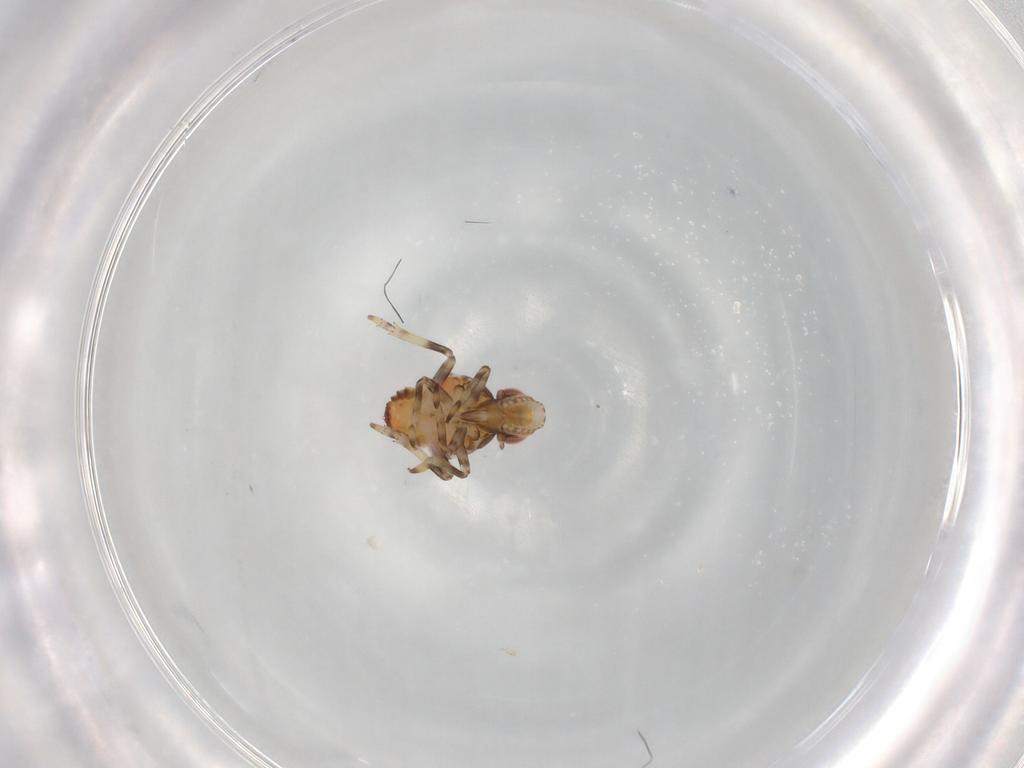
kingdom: Animalia
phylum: Arthropoda
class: Insecta
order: Hemiptera
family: Tropiduchidae
